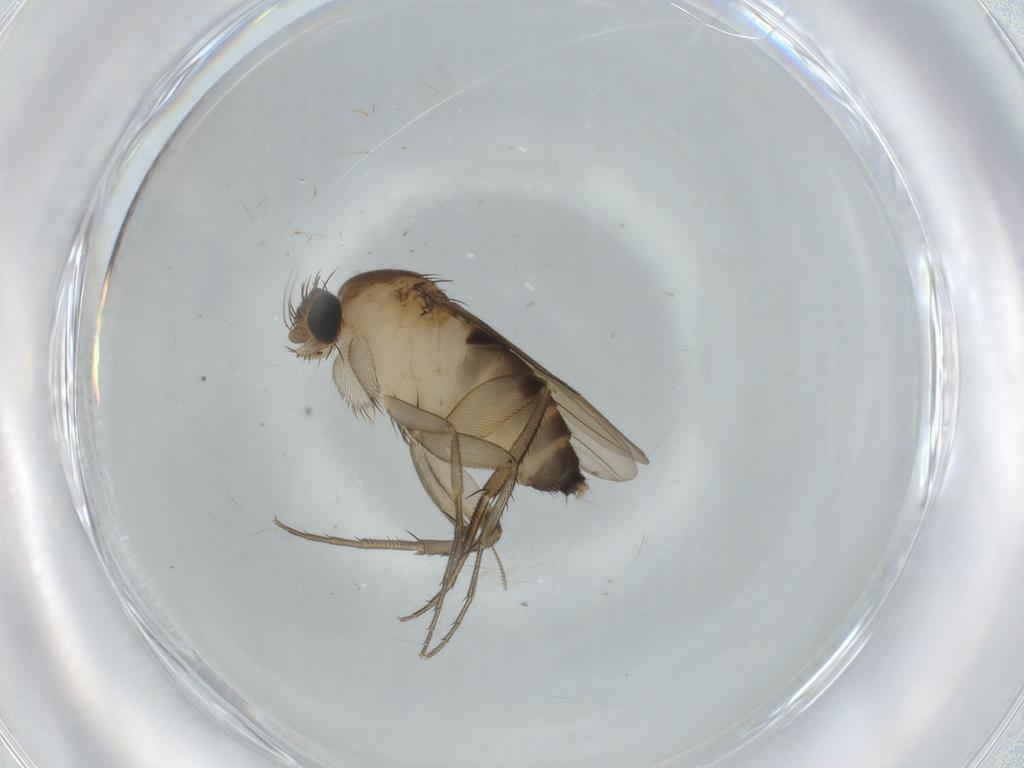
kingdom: Animalia
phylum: Arthropoda
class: Insecta
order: Diptera
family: Phoridae
